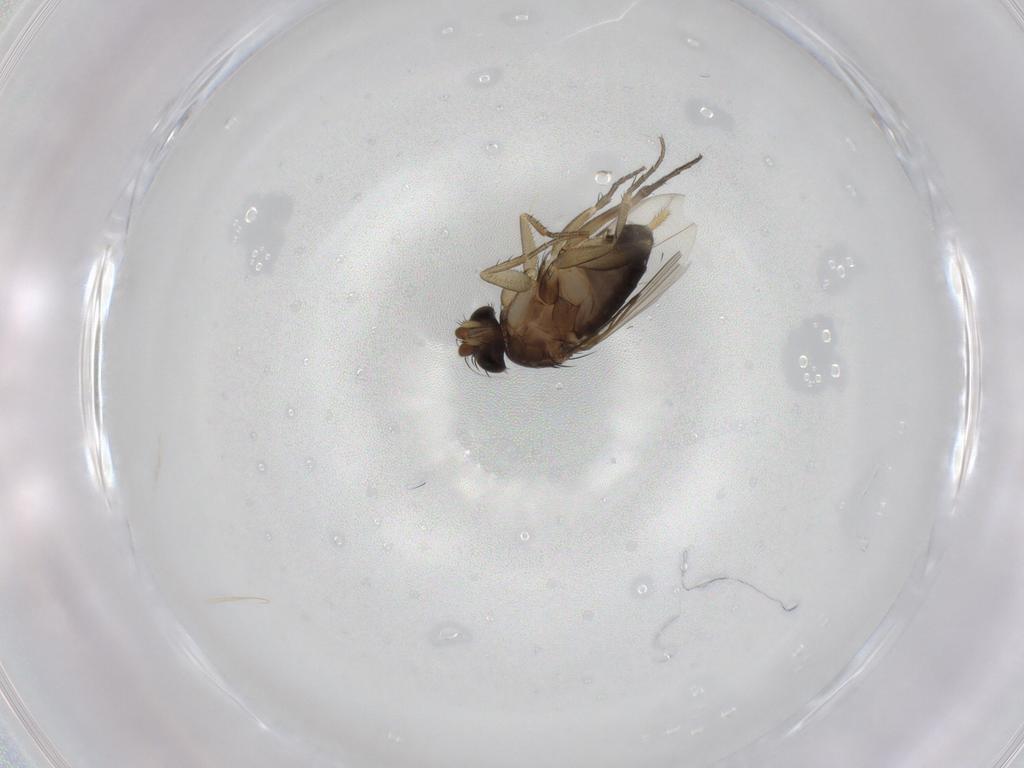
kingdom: Animalia
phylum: Arthropoda
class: Insecta
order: Diptera
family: Phoridae
